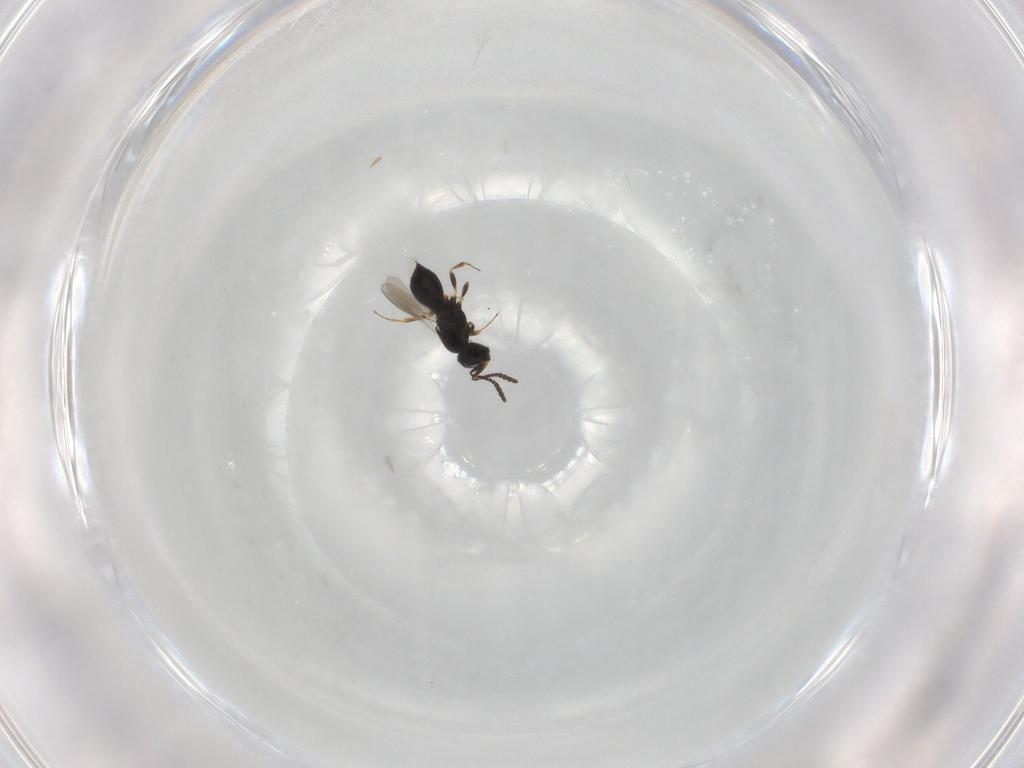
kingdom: Animalia
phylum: Arthropoda
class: Insecta
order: Hymenoptera
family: Scelionidae
